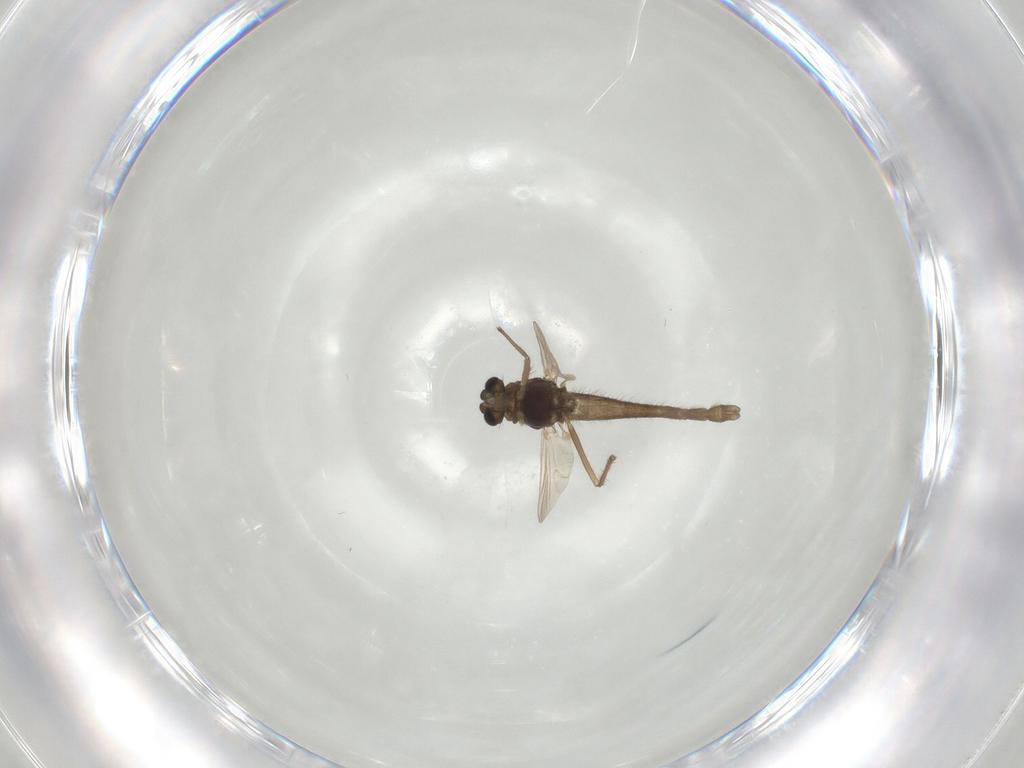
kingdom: Animalia
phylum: Arthropoda
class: Insecta
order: Diptera
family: Chironomidae
